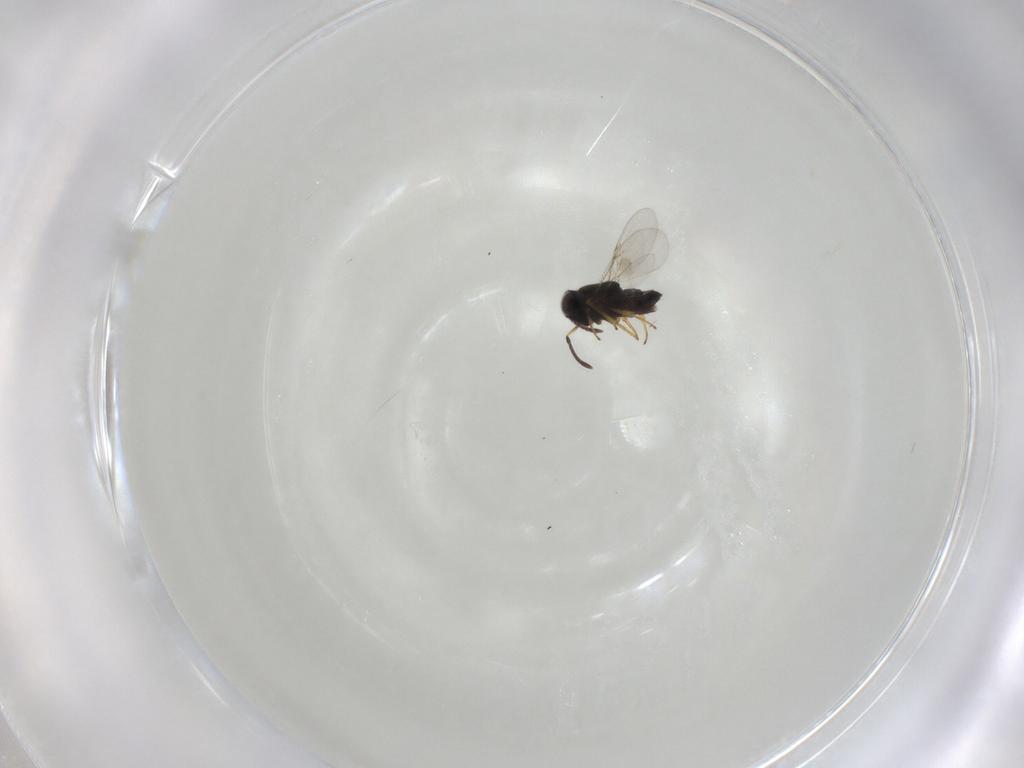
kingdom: Animalia
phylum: Arthropoda
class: Insecta
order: Diptera
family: Cecidomyiidae
